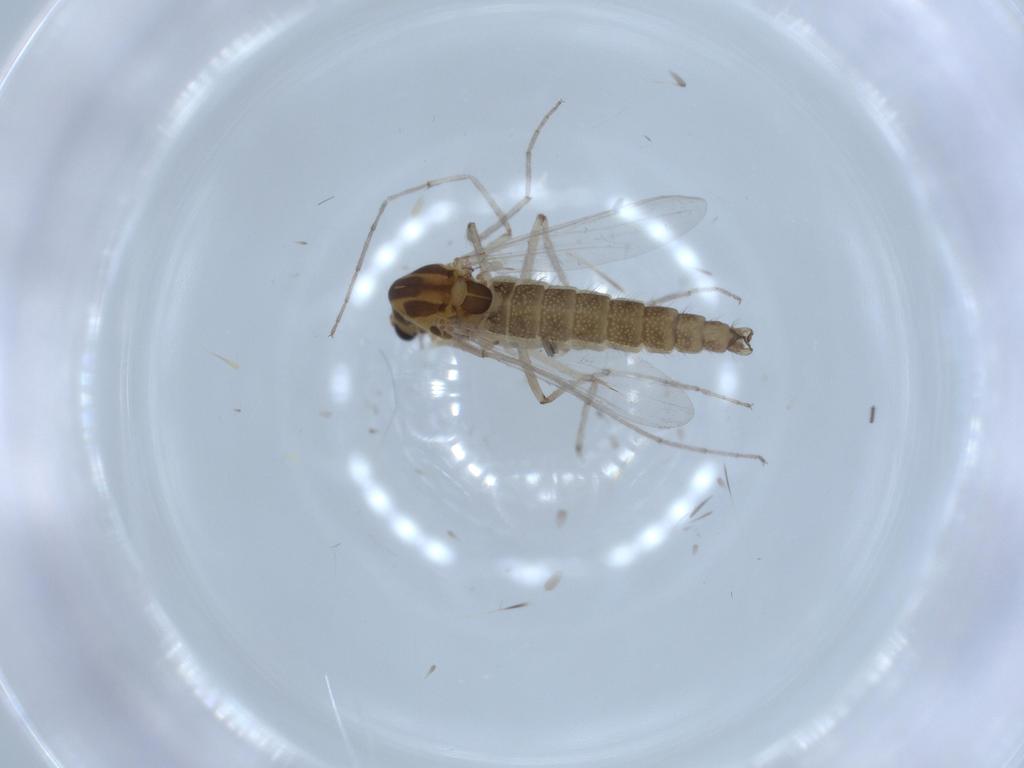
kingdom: Animalia
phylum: Arthropoda
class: Insecta
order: Diptera
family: Chironomidae
